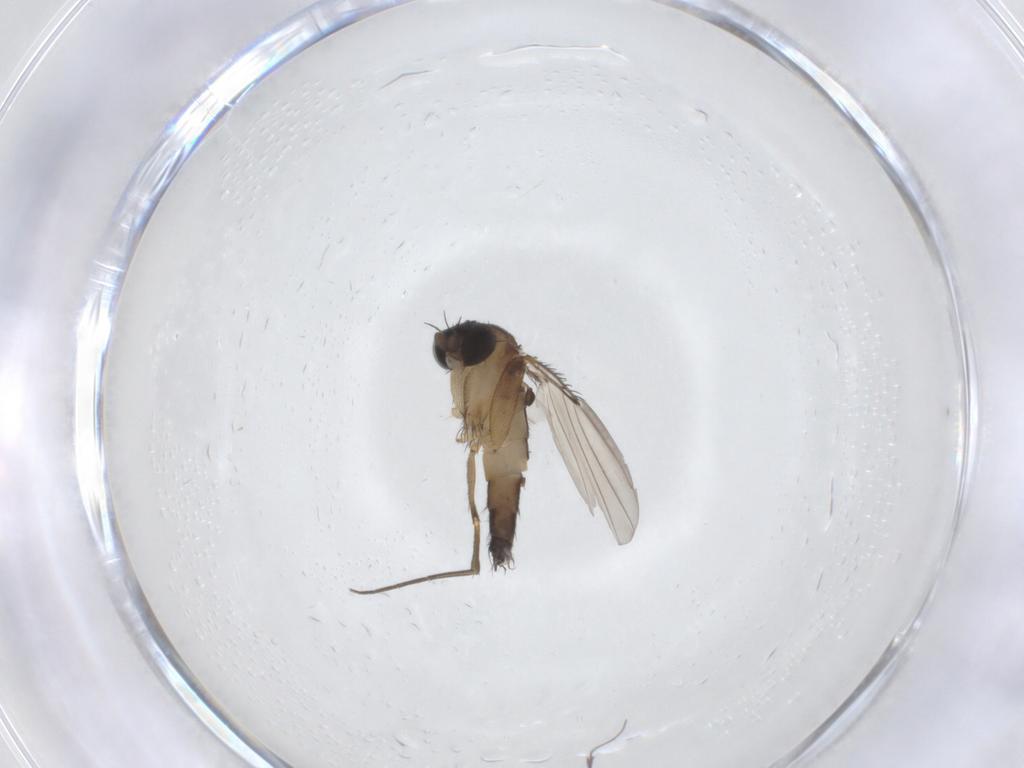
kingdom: Animalia
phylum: Arthropoda
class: Insecta
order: Diptera
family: Phoridae
